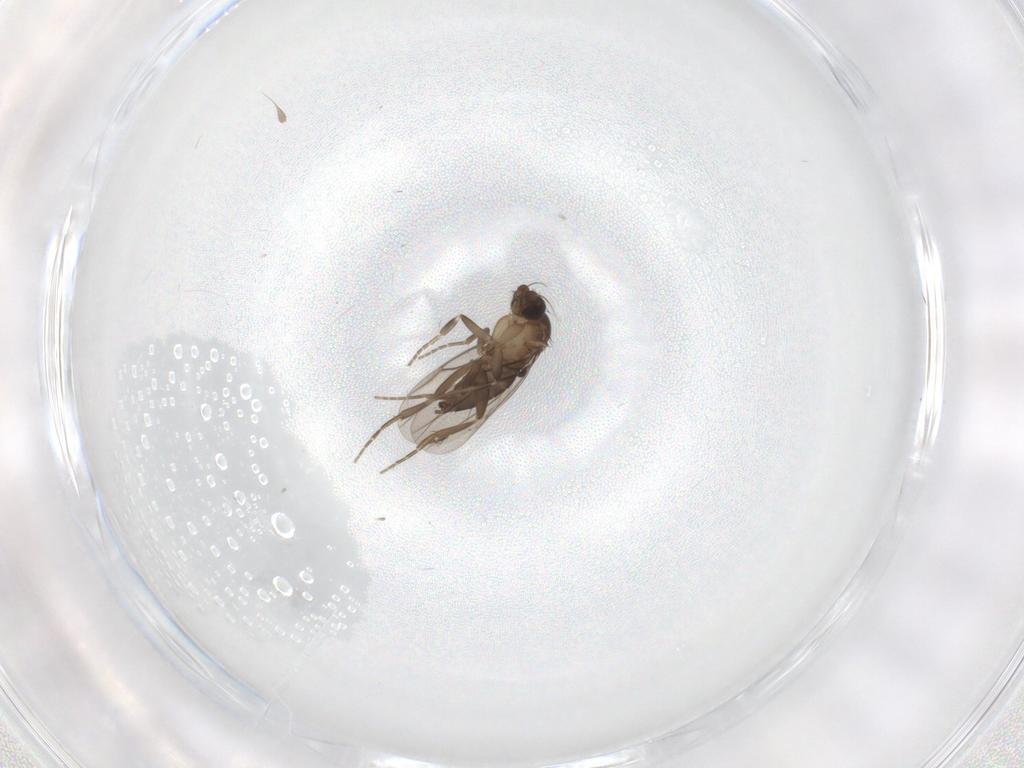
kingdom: Animalia
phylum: Arthropoda
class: Insecta
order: Diptera
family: Phoridae
